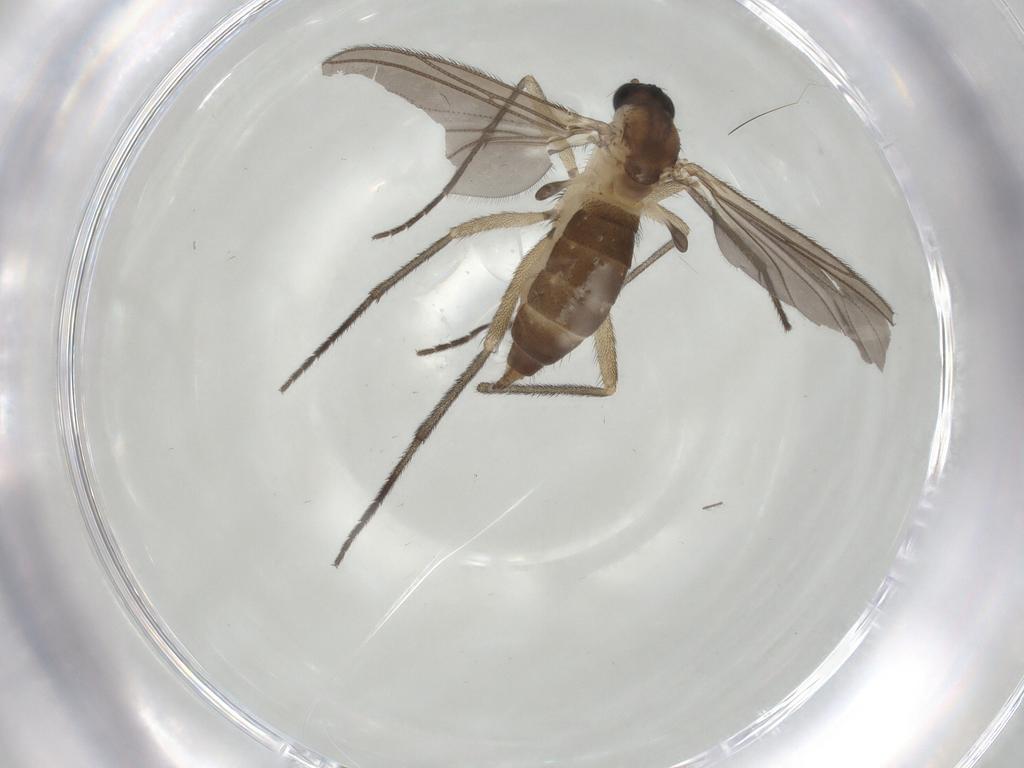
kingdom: Animalia
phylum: Arthropoda
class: Insecta
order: Diptera
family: Sciaridae
